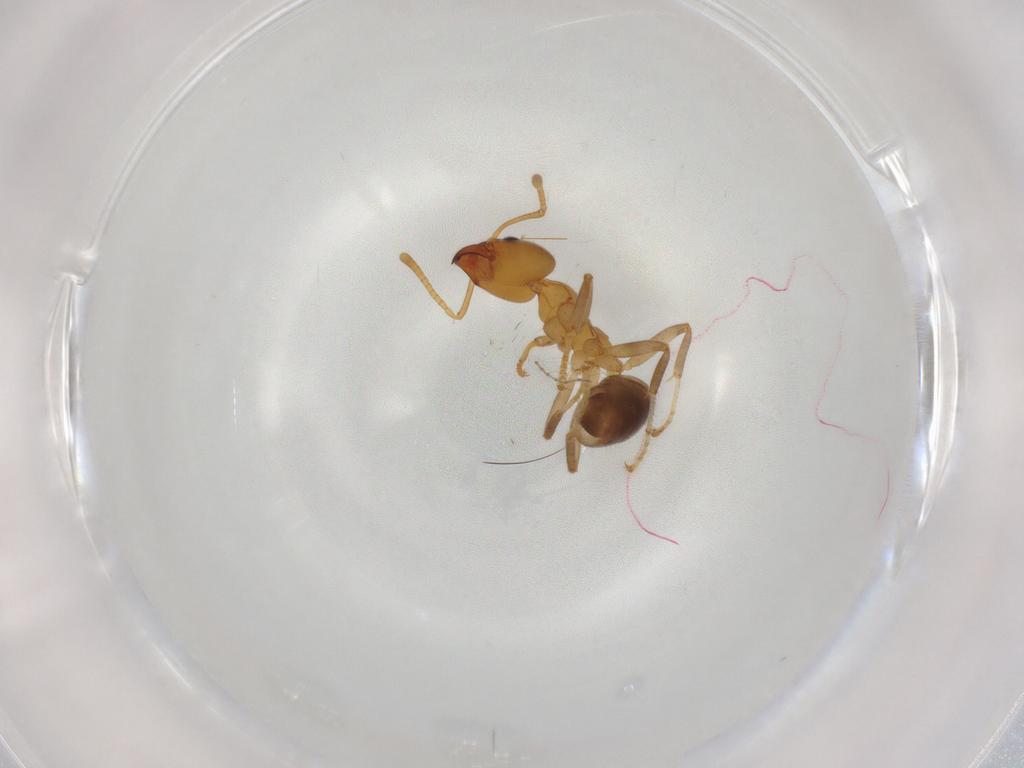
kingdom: Animalia
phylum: Arthropoda
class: Insecta
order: Hymenoptera
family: Formicidae
